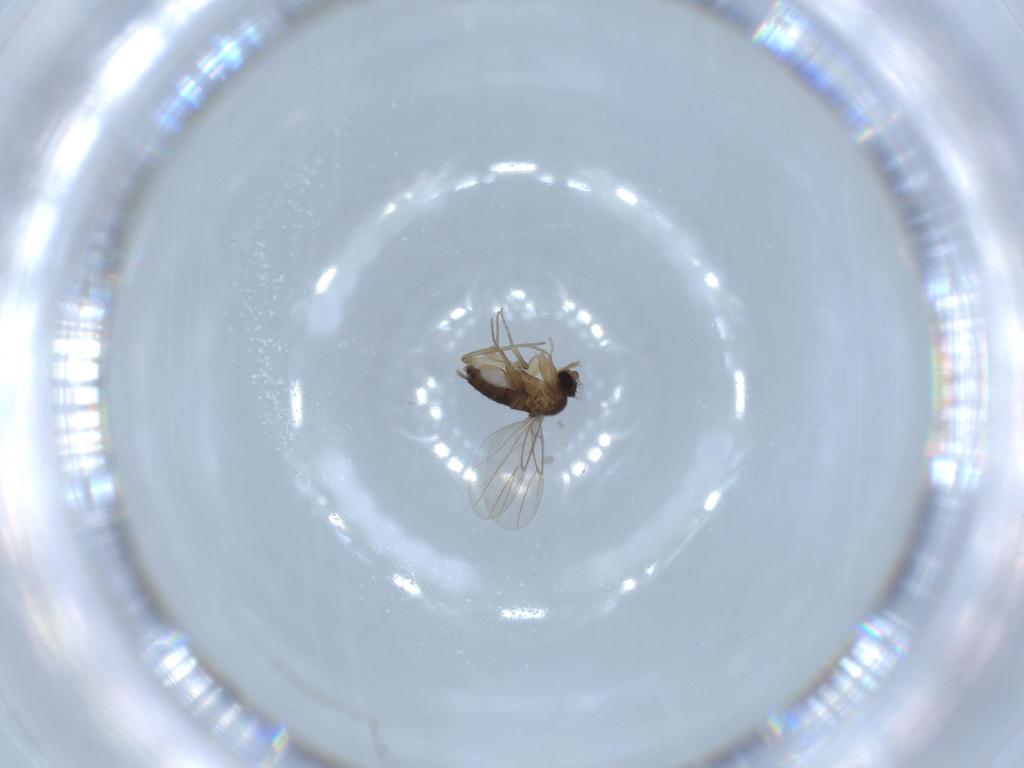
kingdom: Animalia
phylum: Arthropoda
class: Insecta
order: Diptera
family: Phoridae
